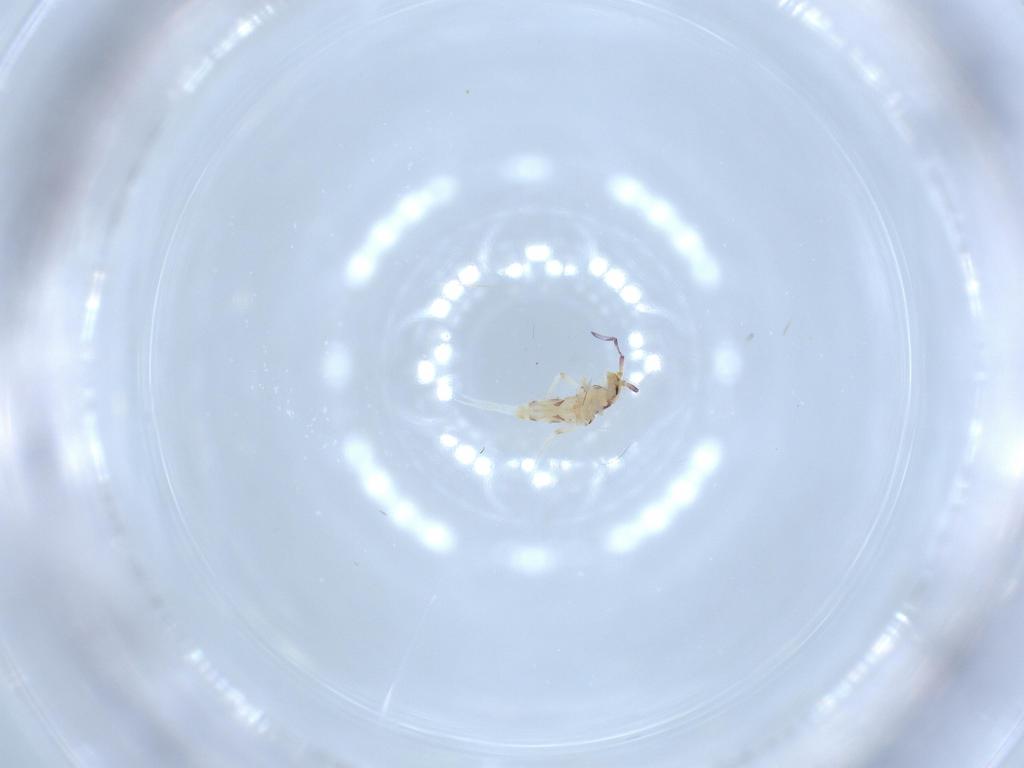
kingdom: Animalia
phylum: Arthropoda
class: Collembola
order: Entomobryomorpha
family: Entomobryidae
